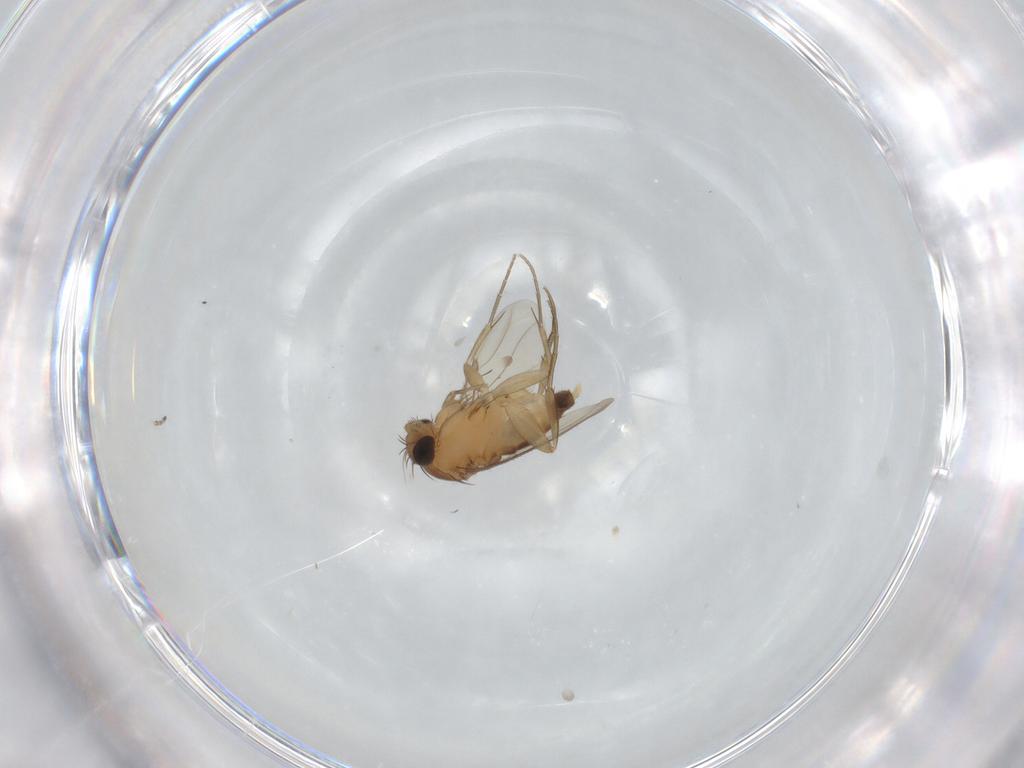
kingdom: Animalia
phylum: Arthropoda
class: Insecta
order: Diptera
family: Phoridae
